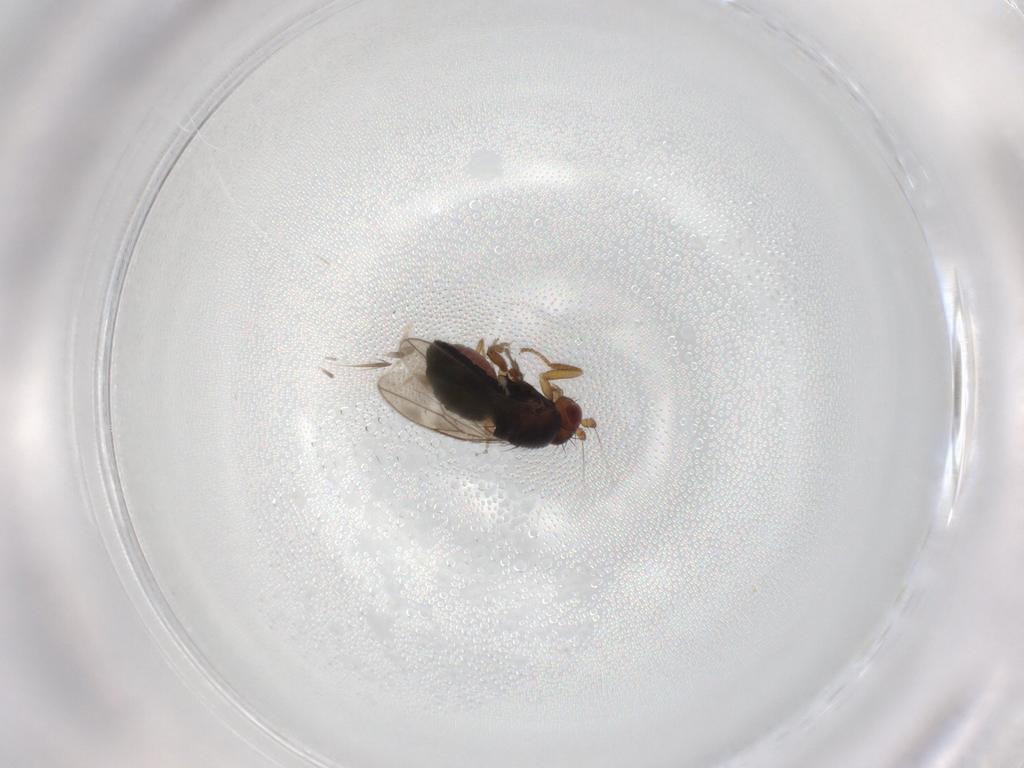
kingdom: Animalia
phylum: Arthropoda
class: Insecta
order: Diptera
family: Sphaeroceridae
